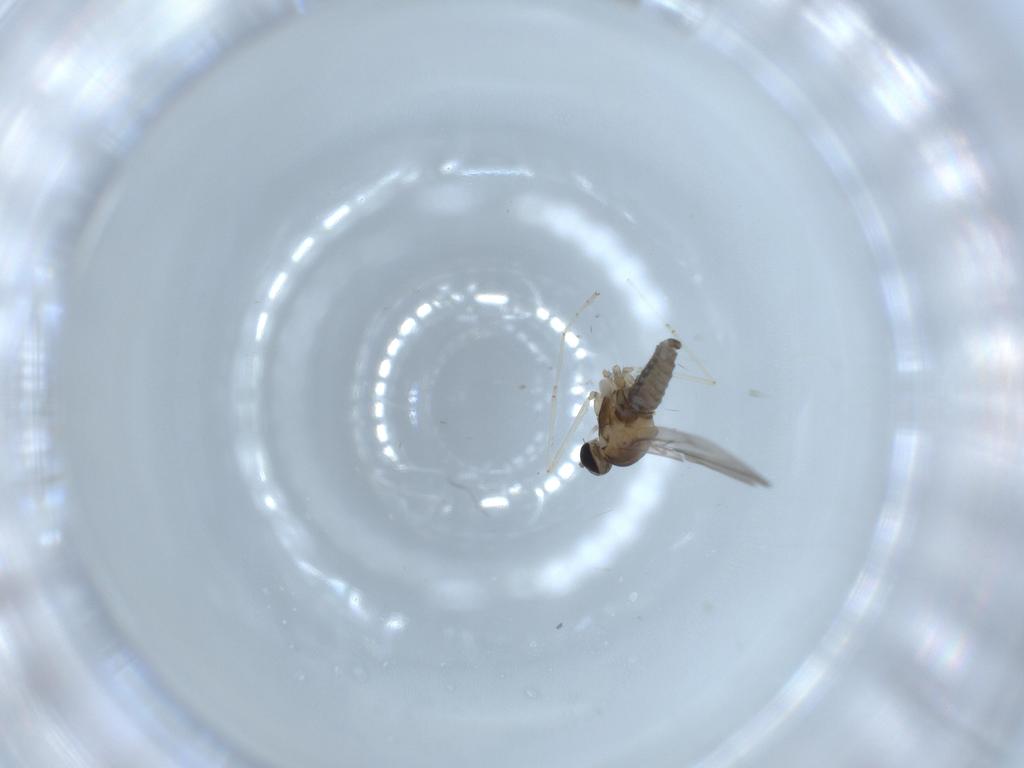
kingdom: Animalia
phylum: Arthropoda
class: Insecta
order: Diptera
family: Cecidomyiidae
